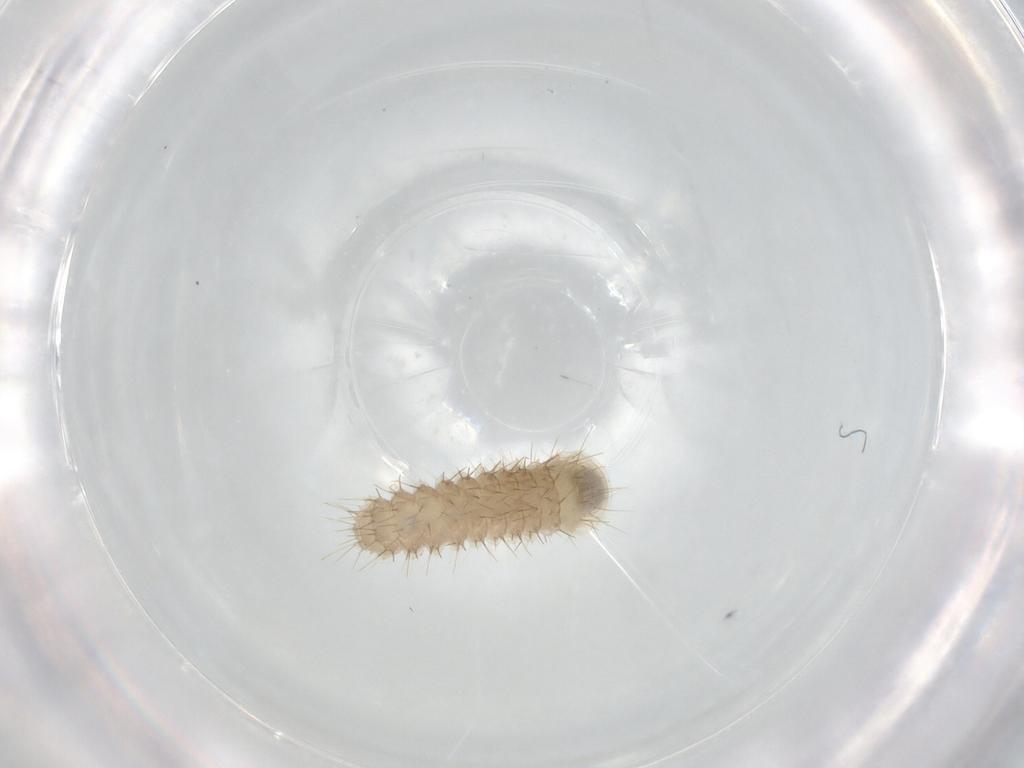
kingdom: Animalia
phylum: Arthropoda
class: Insecta
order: Lepidoptera
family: Zygaenidae
